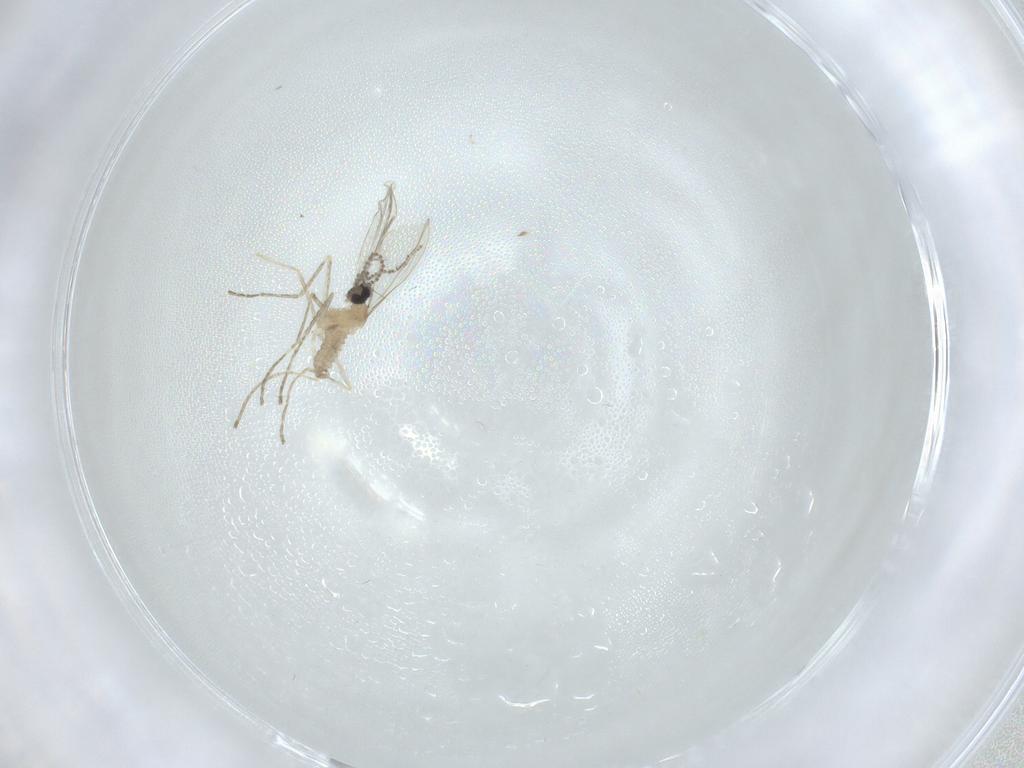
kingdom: Animalia
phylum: Arthropoda
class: Insecta
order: Diptera
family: Cecidomyiidae
